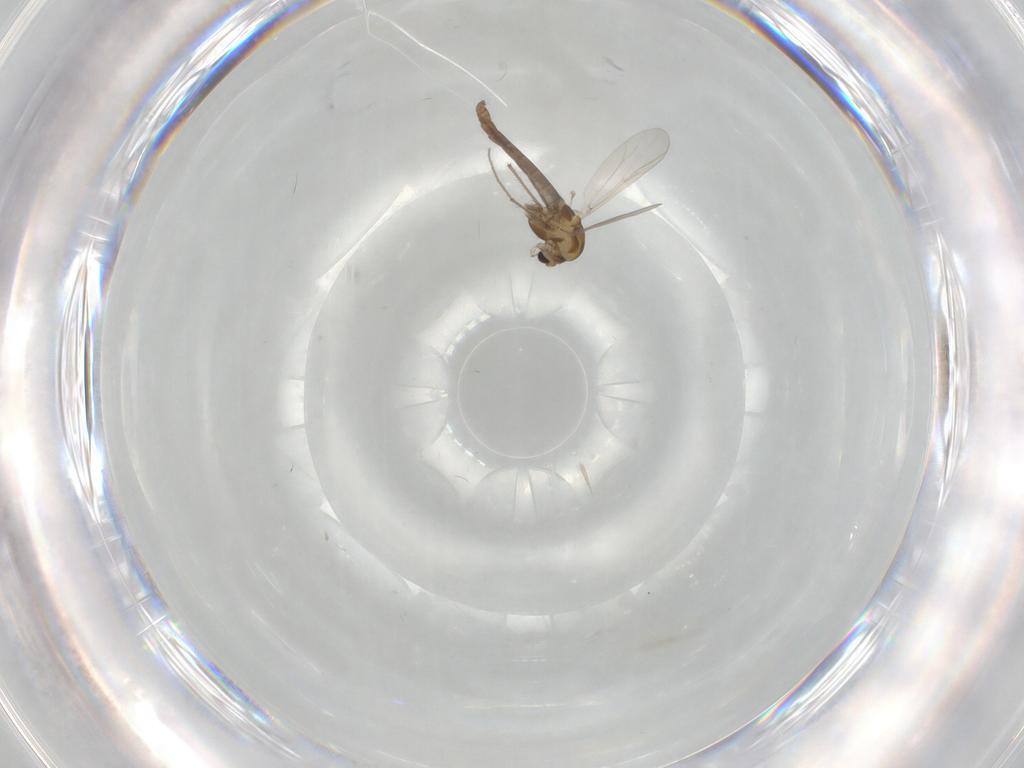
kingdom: Animalia
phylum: Arthropoda
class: Insecta
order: Diptera
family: Chironomidae
